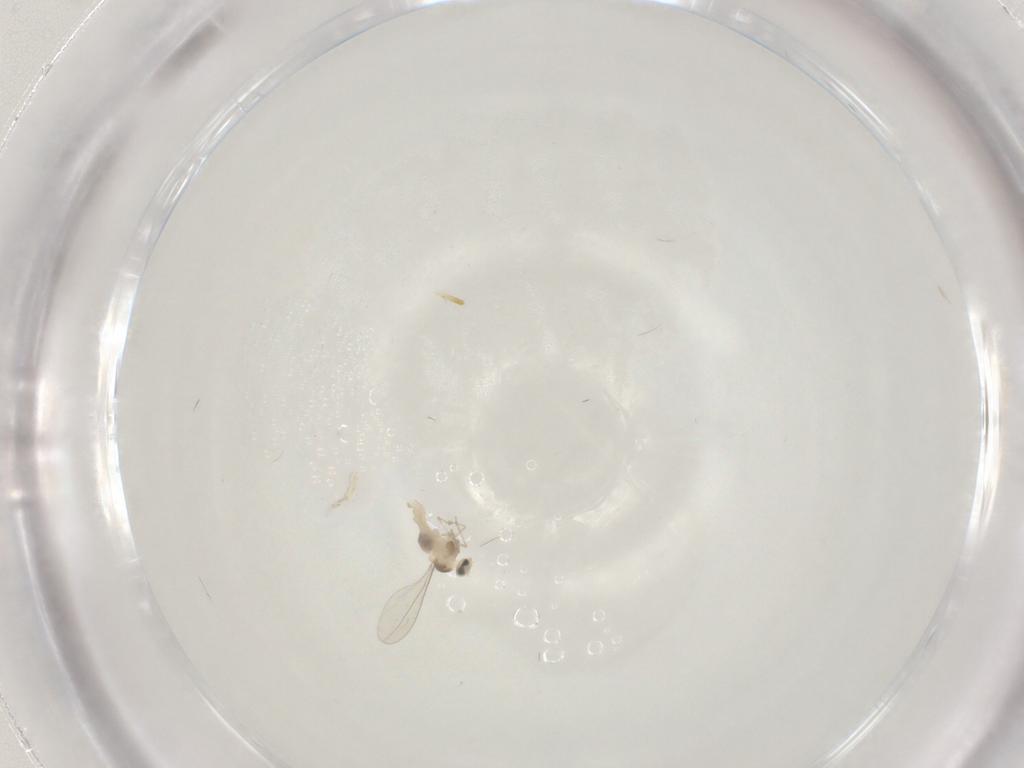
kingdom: Animalia
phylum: Arthropoda
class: Insecta
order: Diptera
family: Cecidomyiidae
